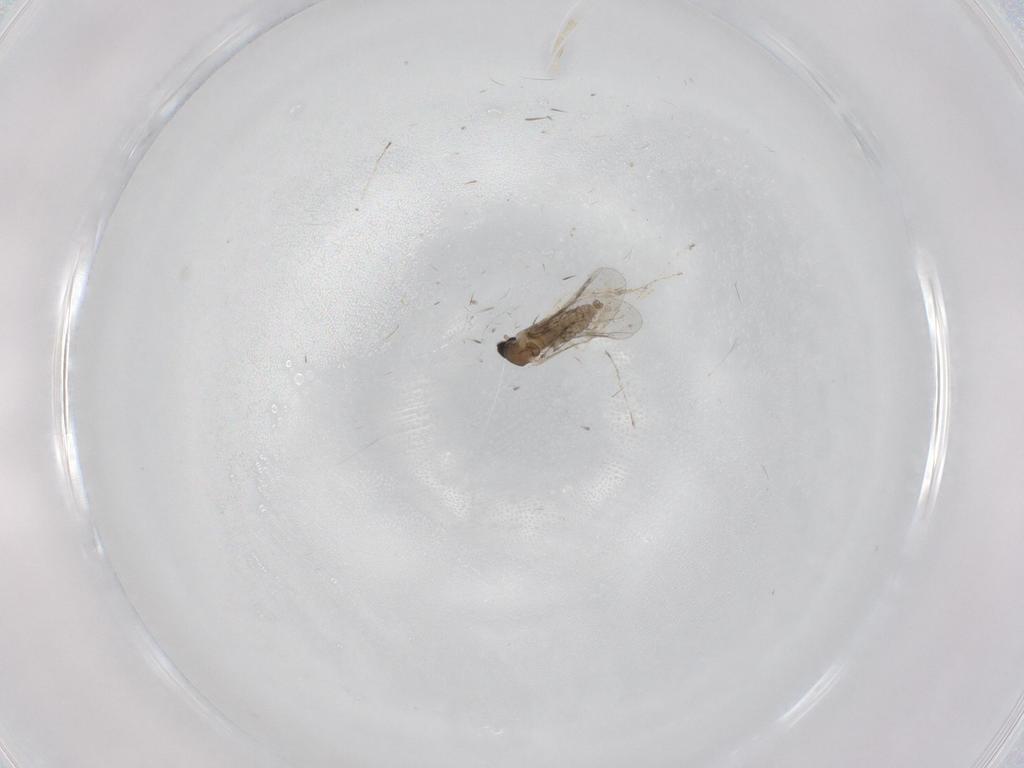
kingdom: Animalia
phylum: Arthropoda
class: Insecta
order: Diptera
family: Cecidomyiidae
